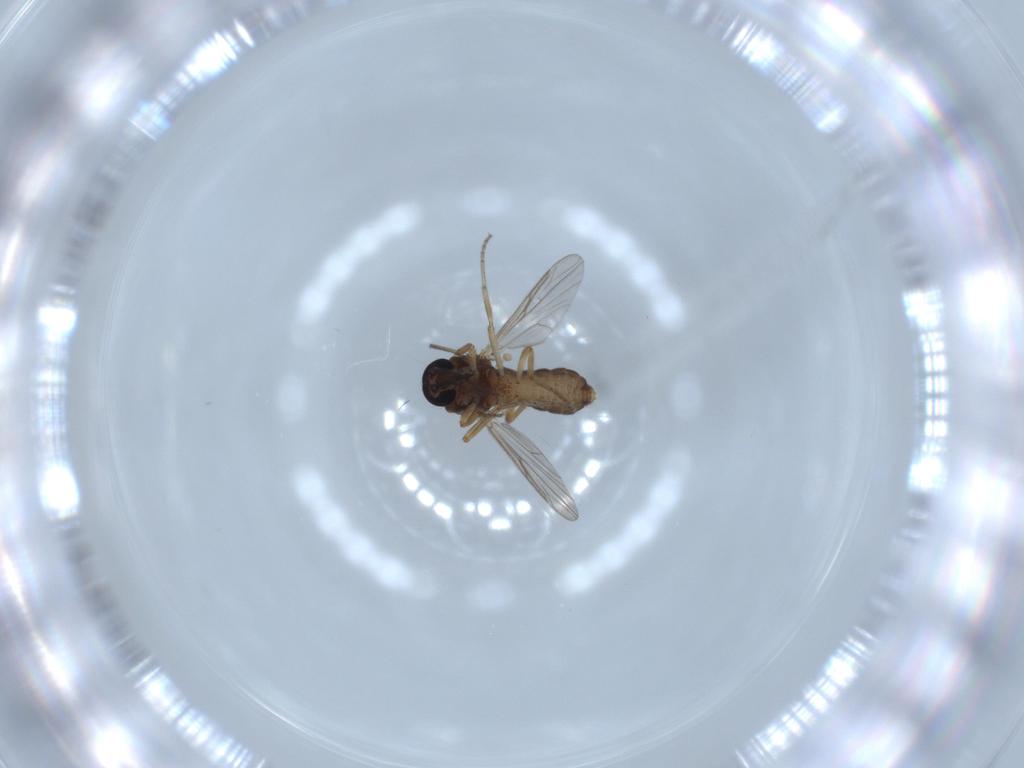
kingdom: Animalia
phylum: Arthropoda
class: Insecta
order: Diptera
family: Ceratopogonidae
